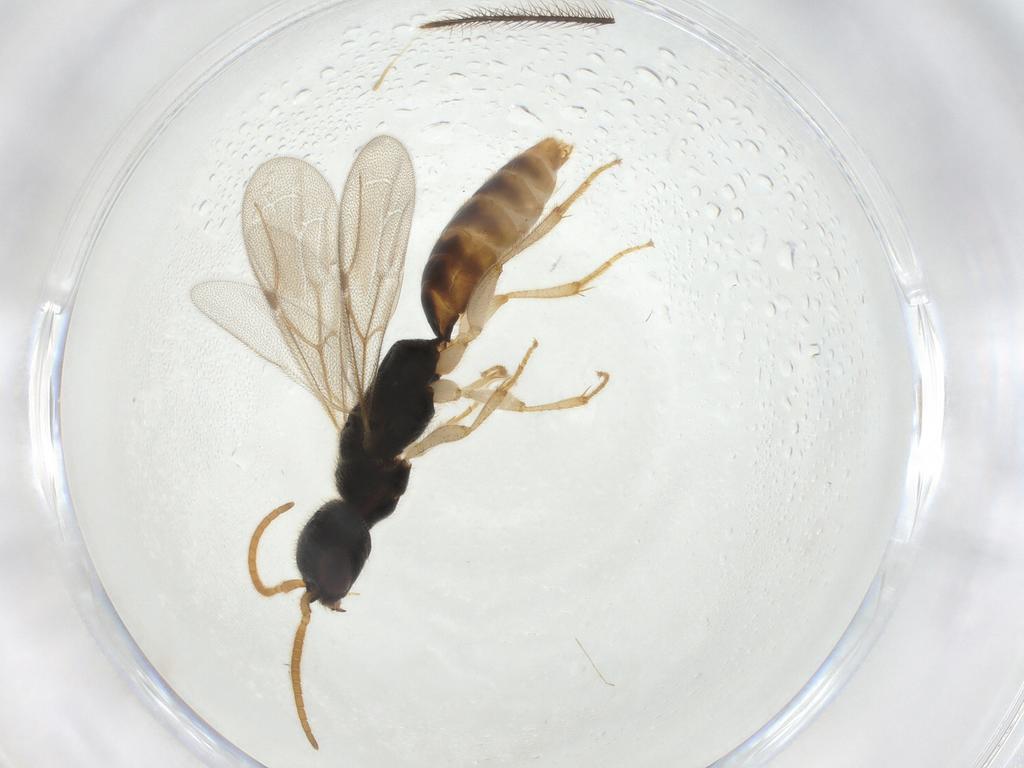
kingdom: Animalia
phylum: Arthropoda
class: Insecta
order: Hymenoptera
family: Bethylidae
